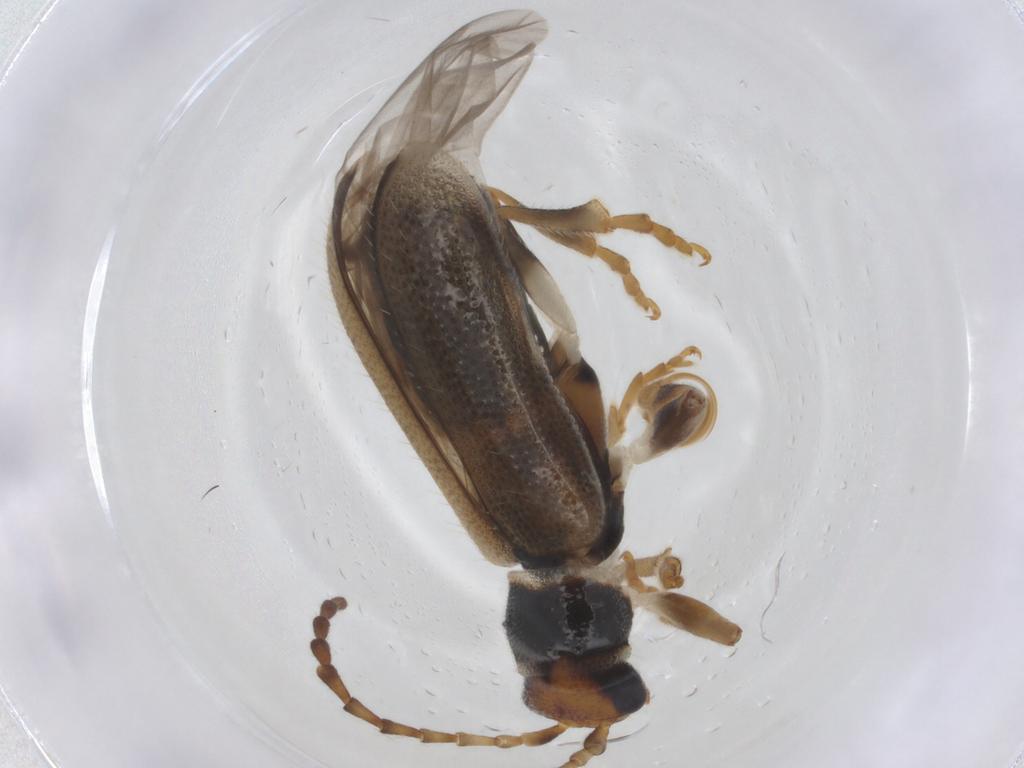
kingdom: Animalia
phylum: Arthropoda
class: Insecta
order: Coleoptera
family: Chrysomelidae
